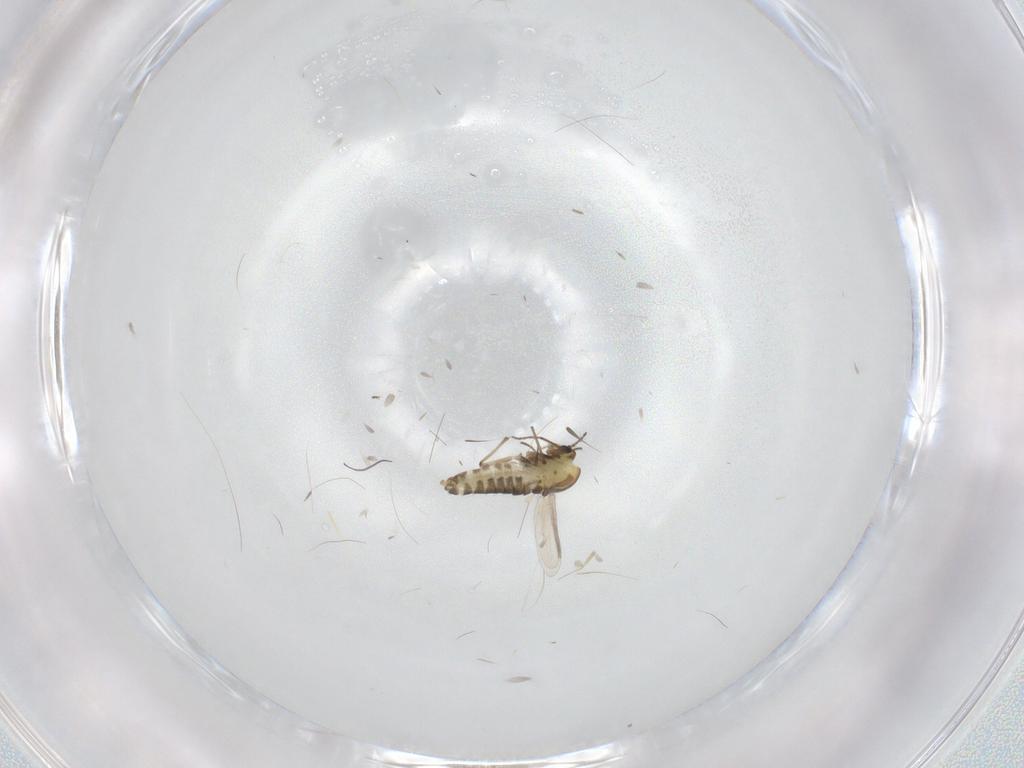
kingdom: Animalia
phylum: Arthropoda
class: Insecta
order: Diptera
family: Chironomidae
